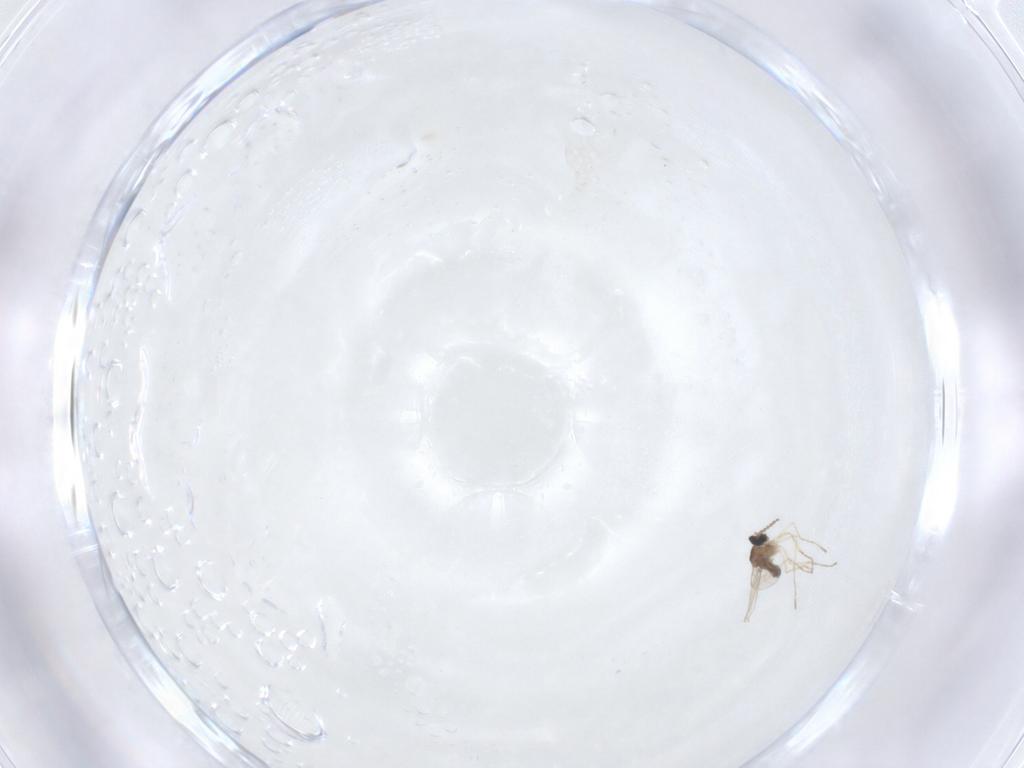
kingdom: Animalia
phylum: Arthropoda
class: Insecta
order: Diptera
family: Cecidomyiidae
